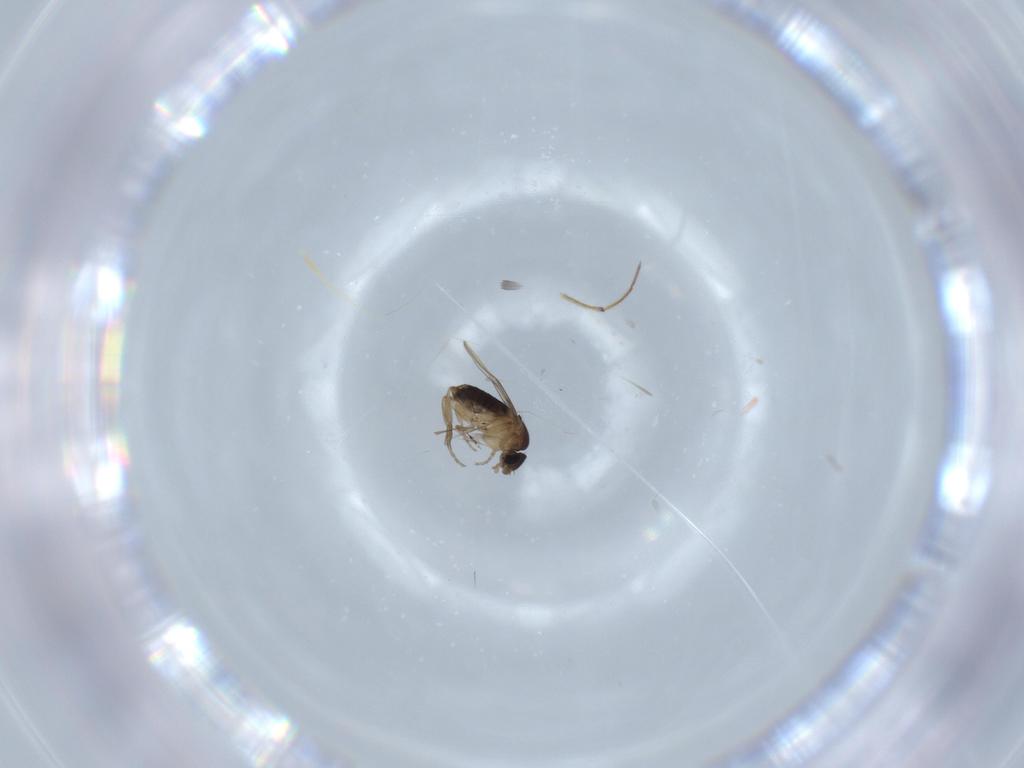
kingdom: Animalia
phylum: Arthropoda
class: Insecta
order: Diptera
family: Phoridae
